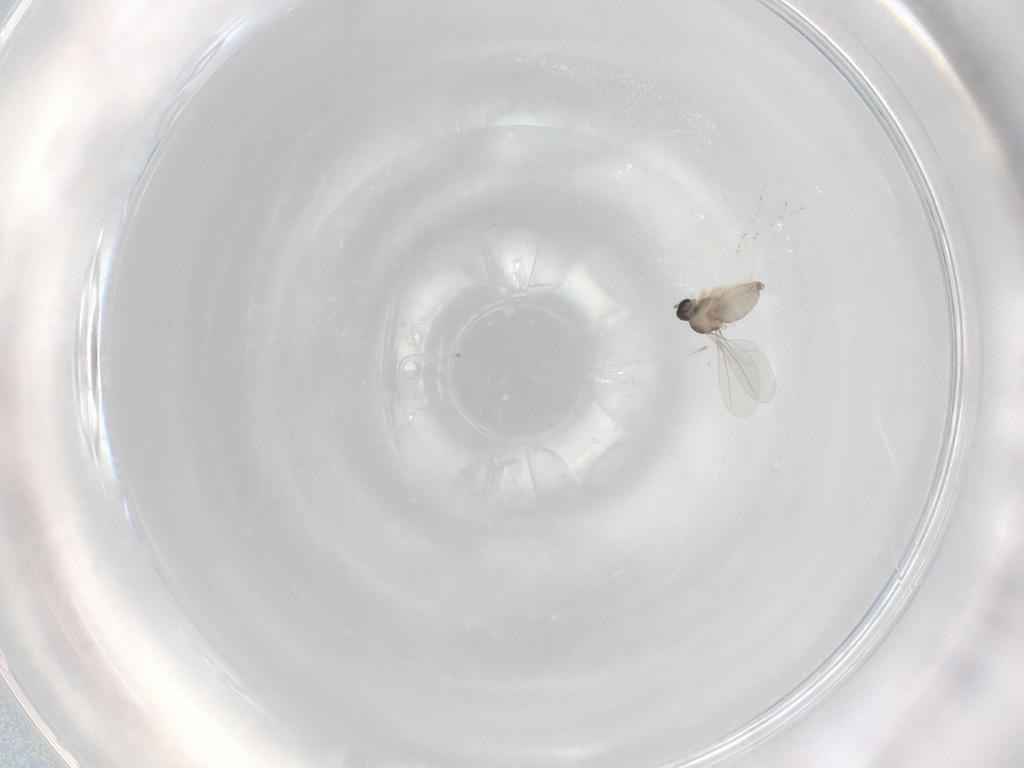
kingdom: Animalia
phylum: Arthropoda
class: Insecta
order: Diptera
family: Cecidomyiidae
